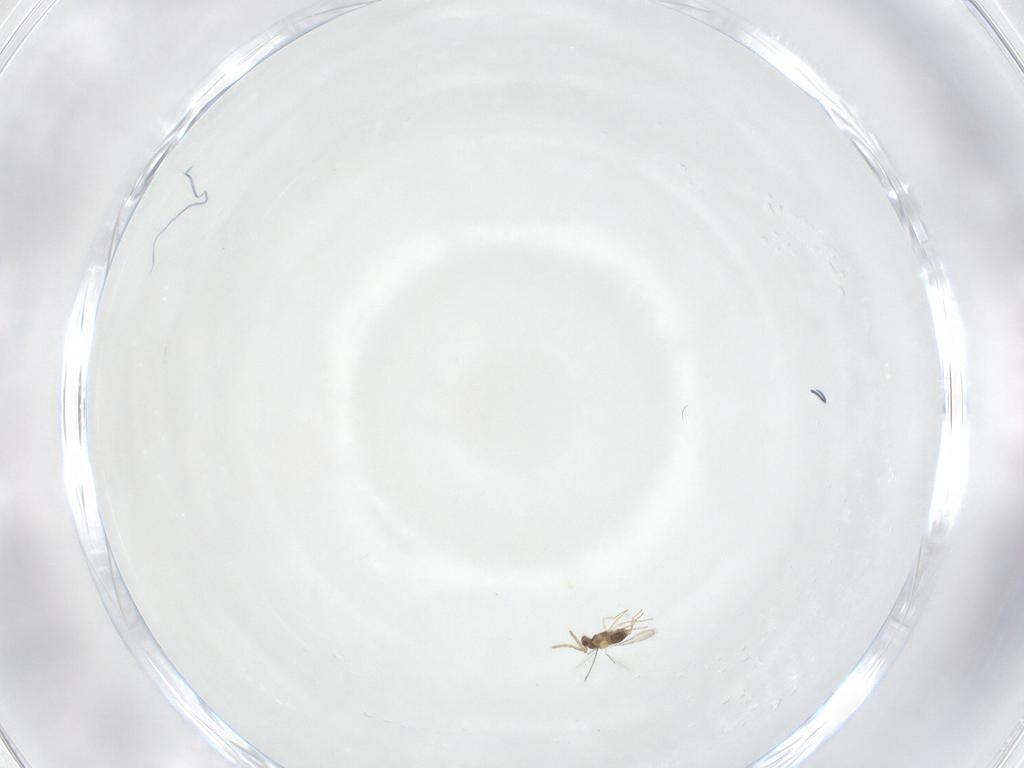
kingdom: Animalia
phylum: Arthropoda
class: Insecta
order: Hymenoptera
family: Aphelinidae
